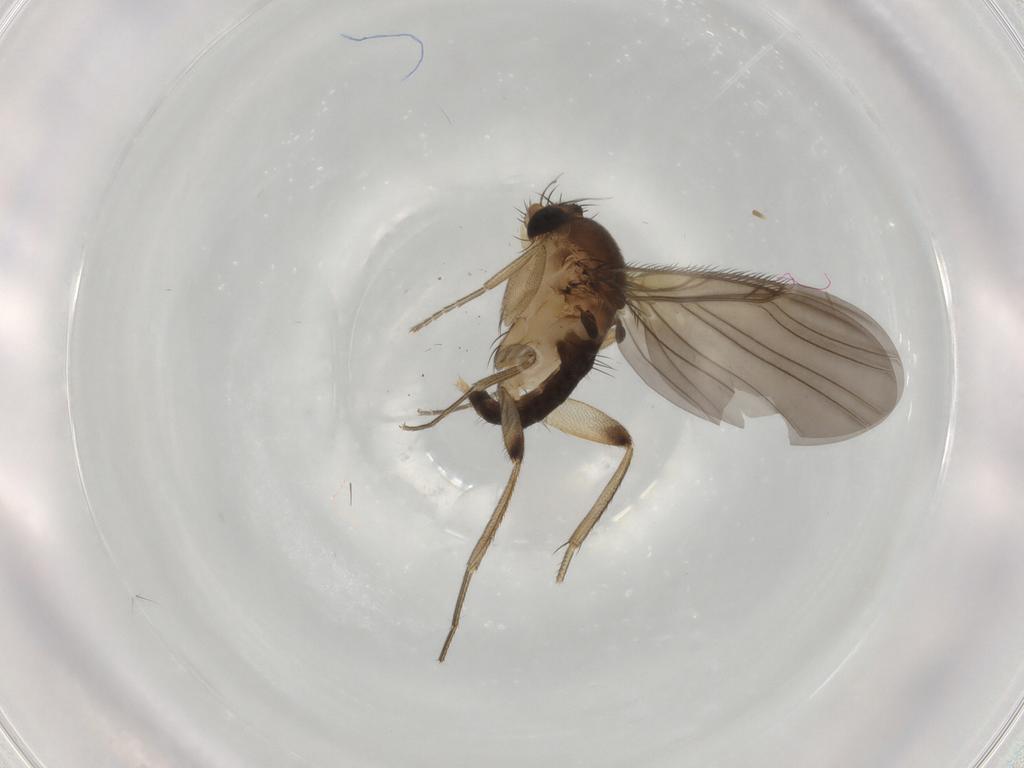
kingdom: Animalia
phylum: Arthropoda
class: Insecta
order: Diptera
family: Phoridae
